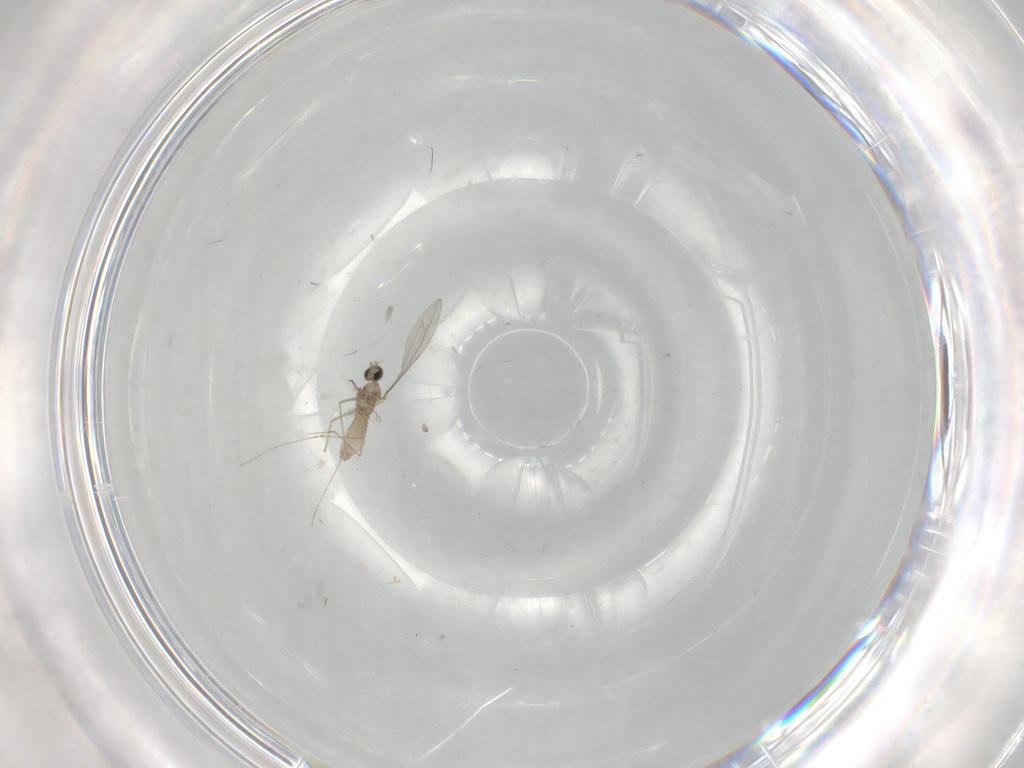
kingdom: Animalia
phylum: Arthropoda
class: Insecta
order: Diptera
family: Cecidomyiidae
